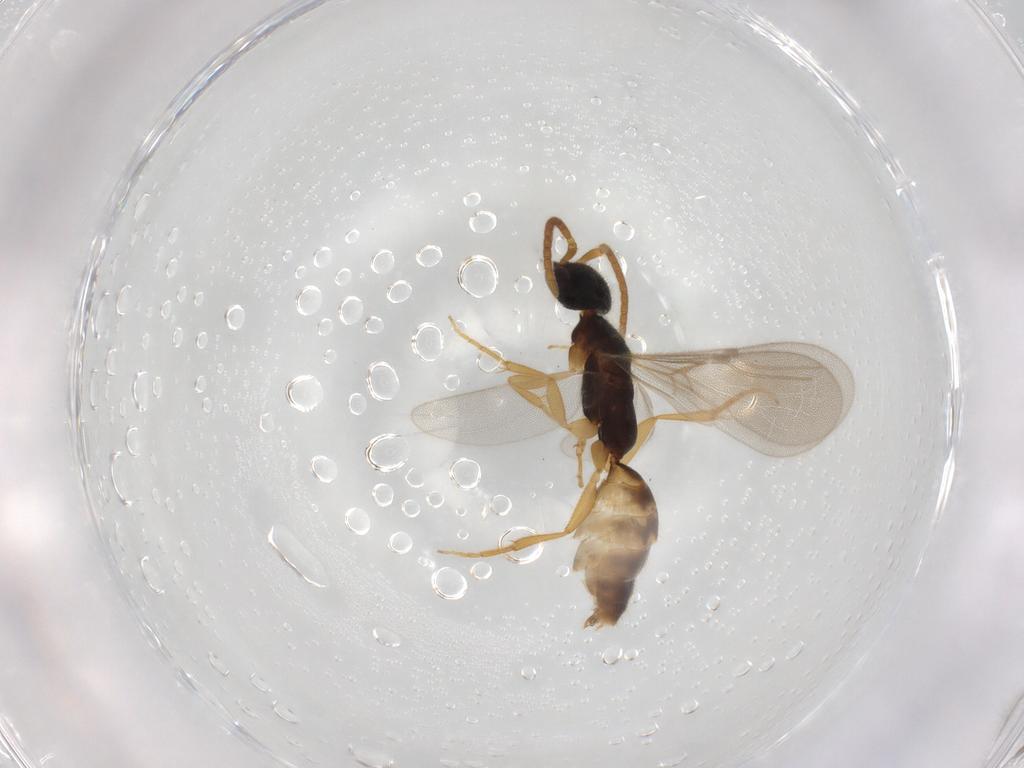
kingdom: Animalia
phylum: Arthropoda
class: Insecta
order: Hymenoptera
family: Bethylidae
